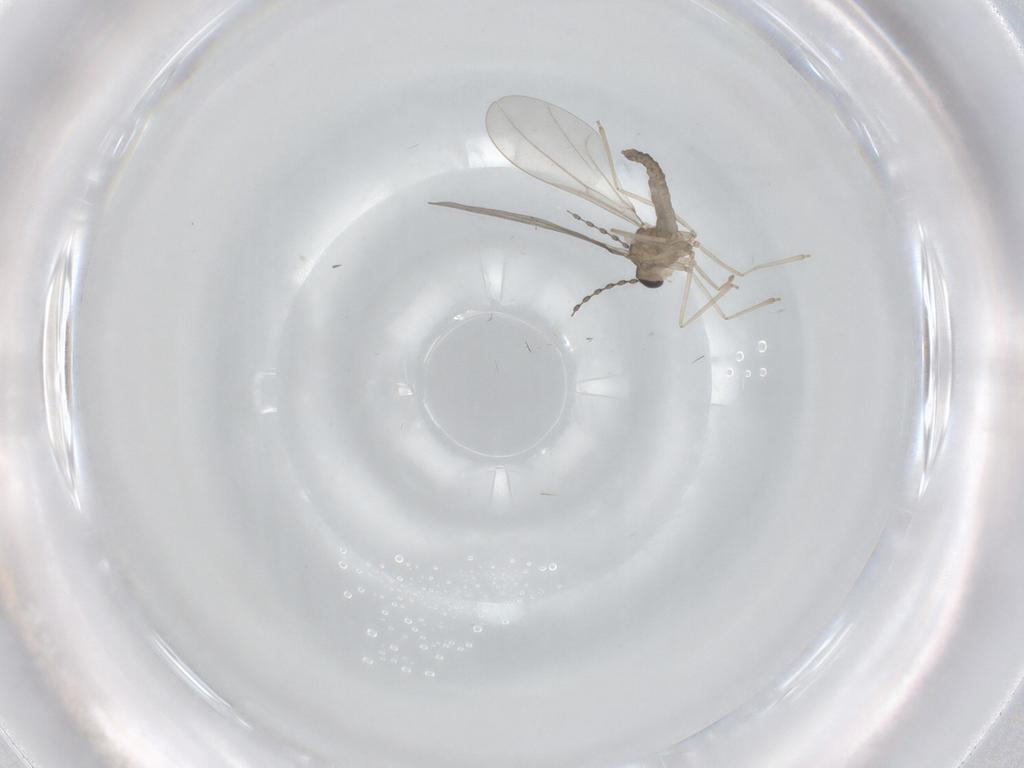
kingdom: Animalia
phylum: Arthropoda
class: Insecta
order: Diptera
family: Cecidomyiidae
